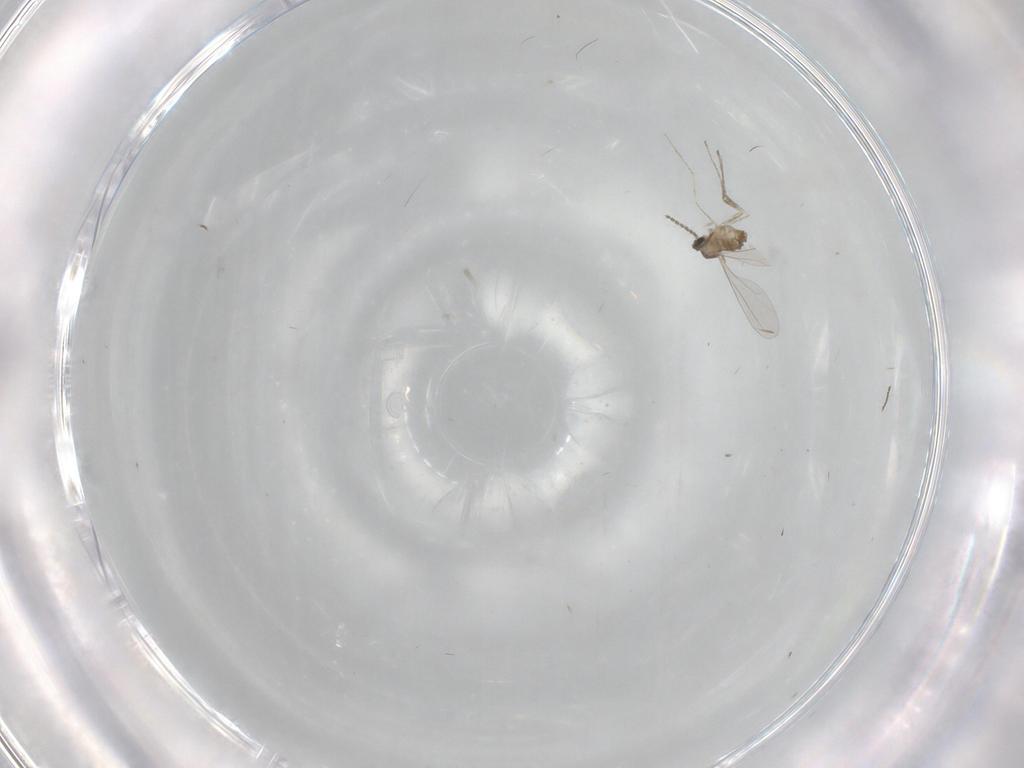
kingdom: Animalia
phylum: Arthropoda
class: Insecta
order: Diptera
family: Cecidomyiidae
